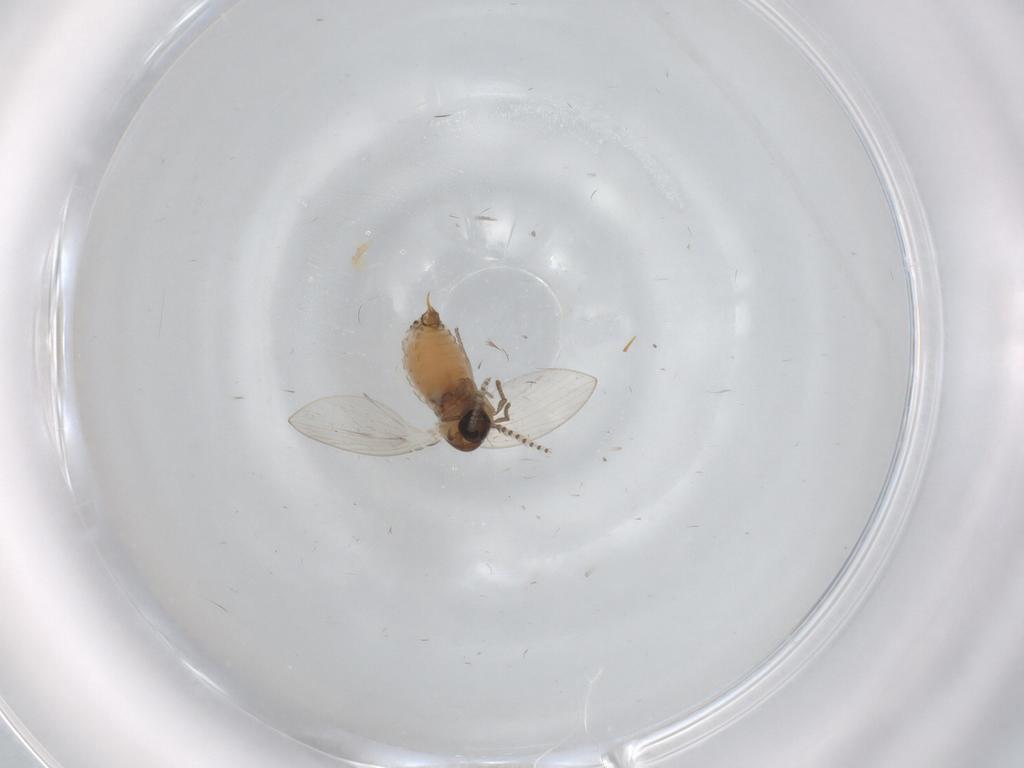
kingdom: Animalia
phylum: Arthropoda
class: Insecta
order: Diptera
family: Psychodidae
